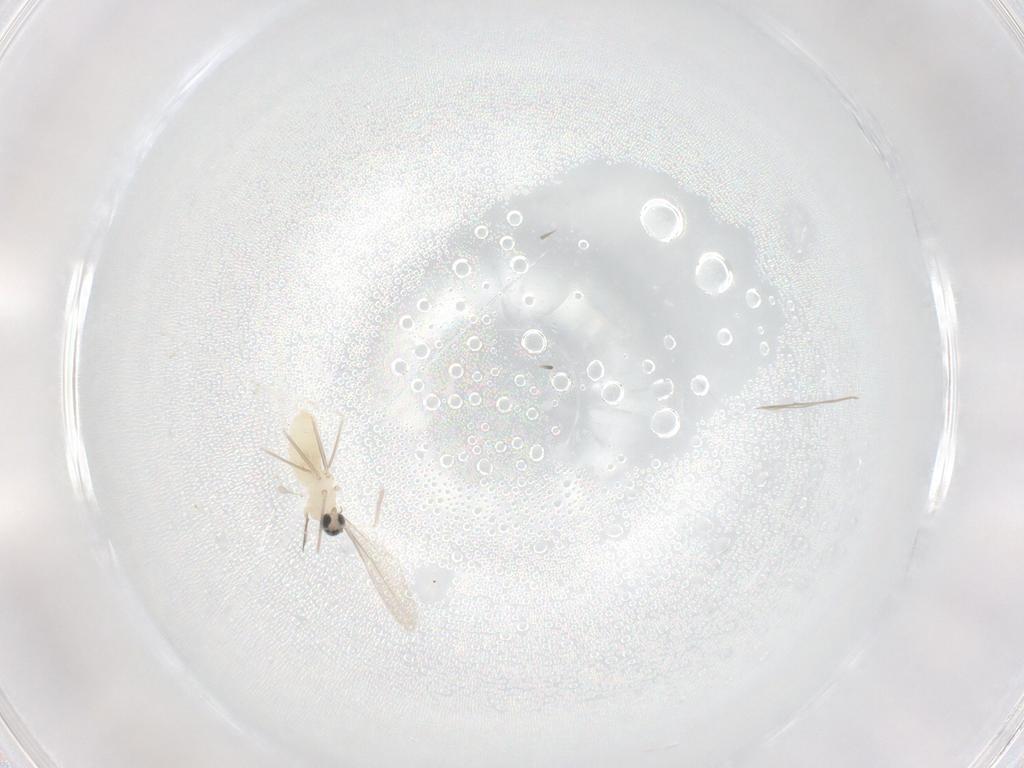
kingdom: Animalia
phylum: Arthropoda
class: Insecta
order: Diptera
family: Cecidomyiidae
